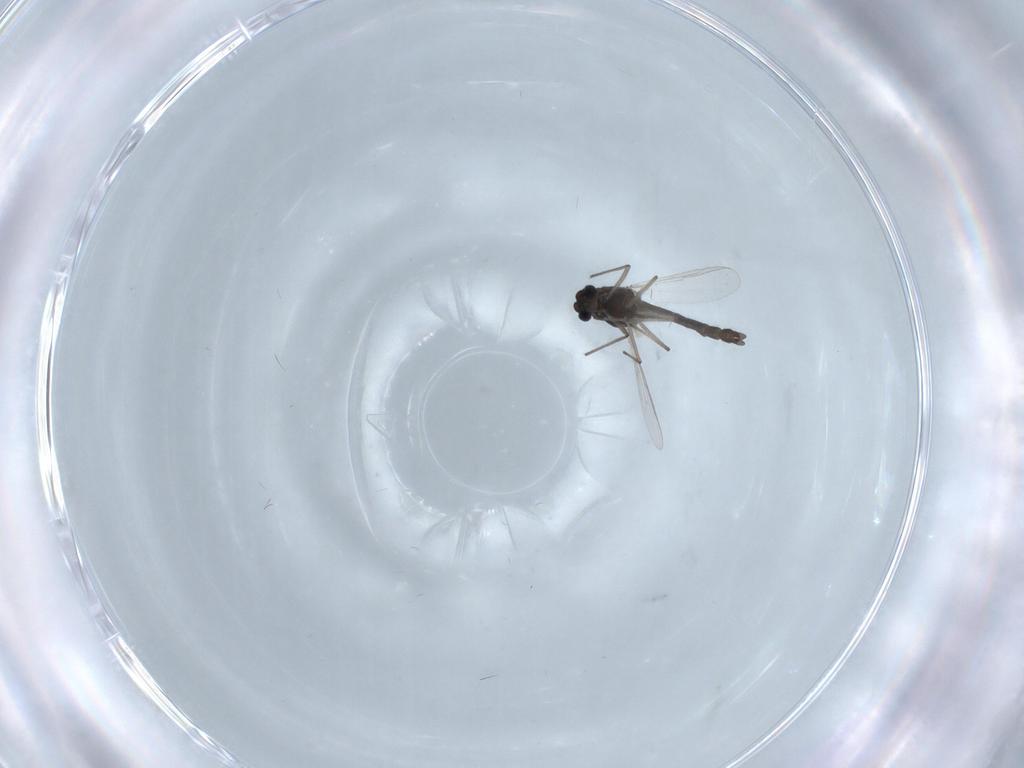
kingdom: Animalia
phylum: Arthropoda
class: Insecta
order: Diptera
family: Chironomidae
